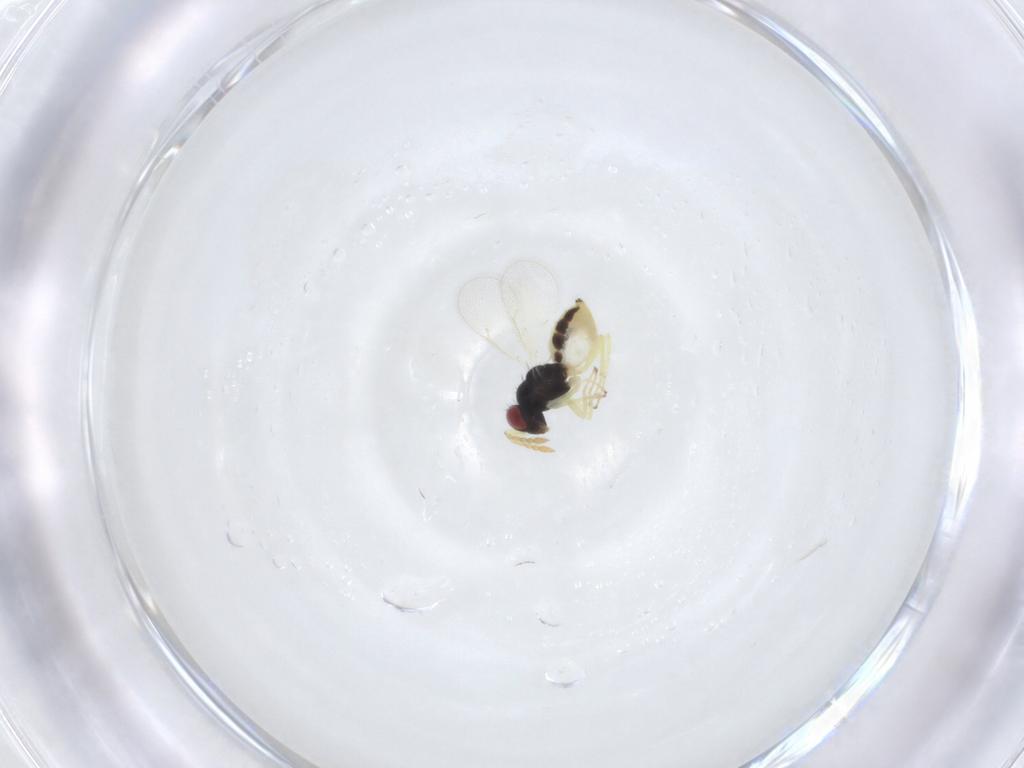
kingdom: Animalia
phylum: Arthropoda
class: Insecta
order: Hymenoptera
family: Eulophidae
